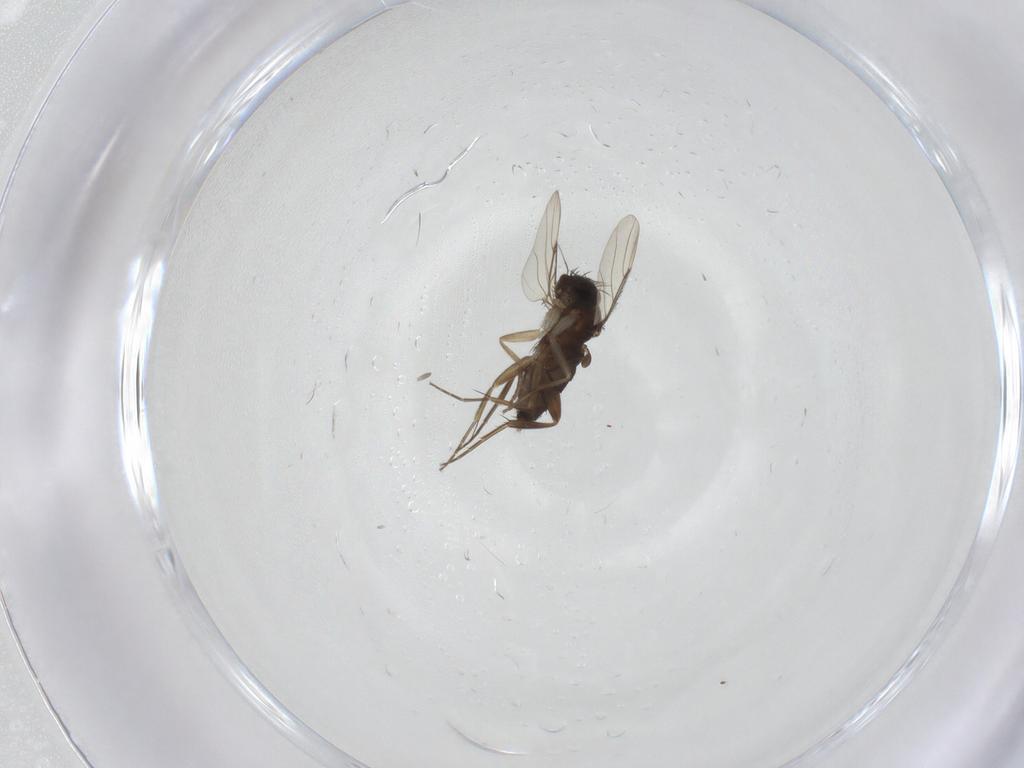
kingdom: Animalia
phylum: Arthropoda
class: Insecta
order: Diptera
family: Phoridae
